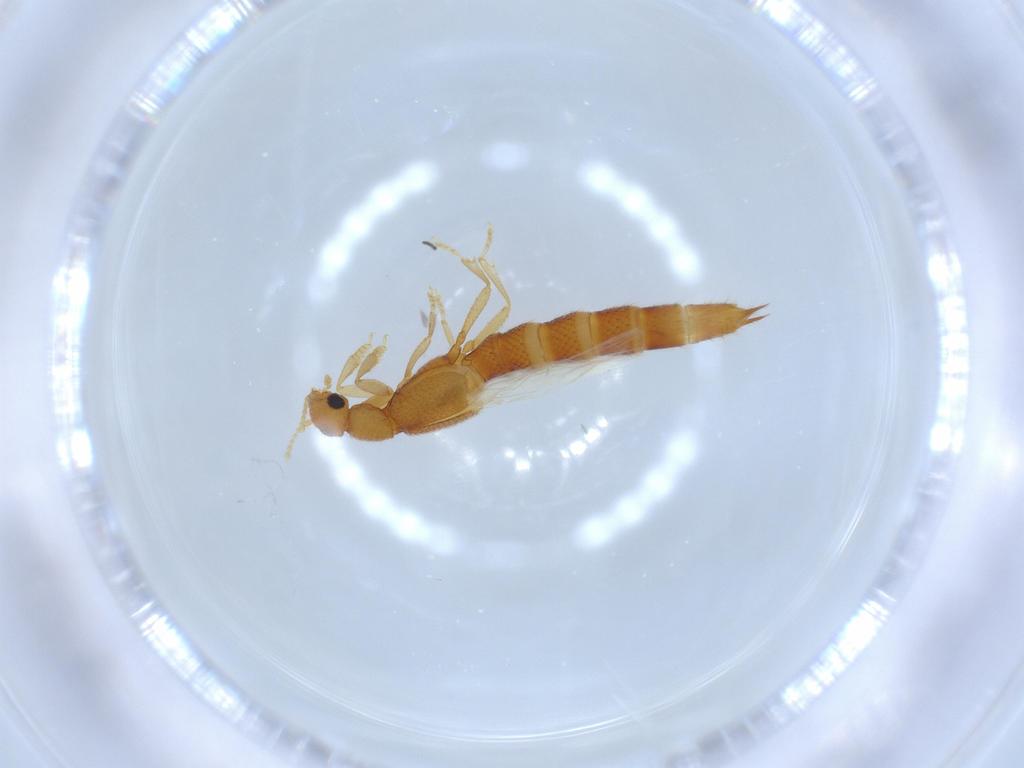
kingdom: Animalia
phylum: Arthropoda
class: Insecta
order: Coleoptera
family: Staphylinidae
